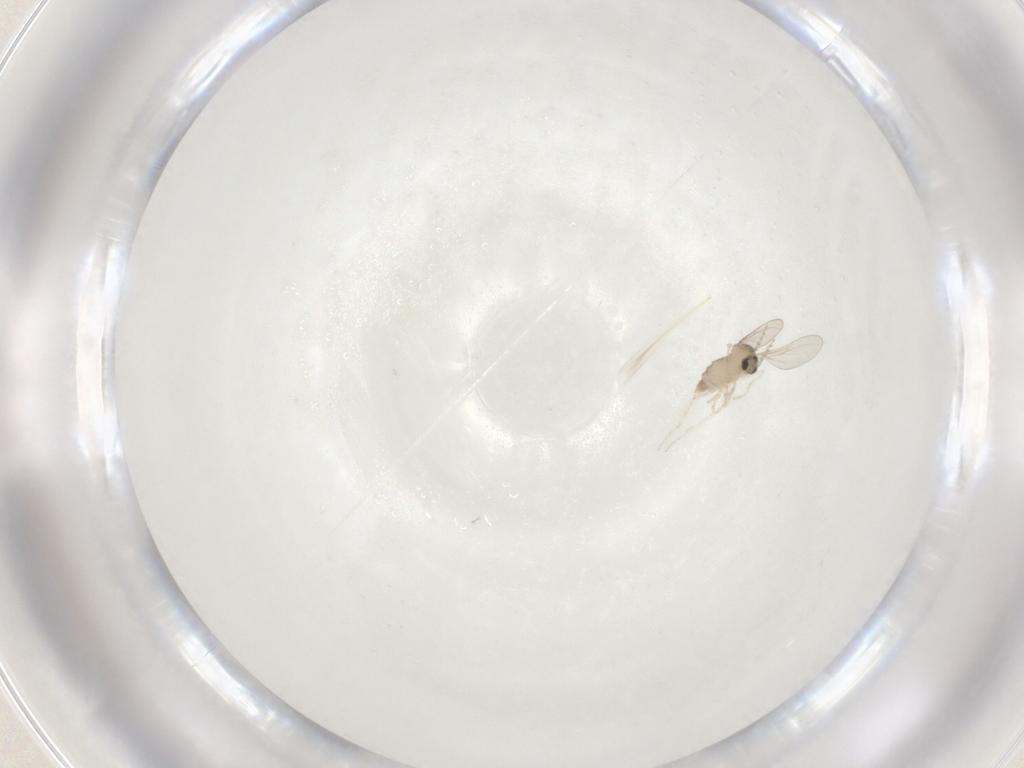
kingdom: Animalia
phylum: Arthropoda
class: Insecta
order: Diptera
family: Cecidomyiidae
